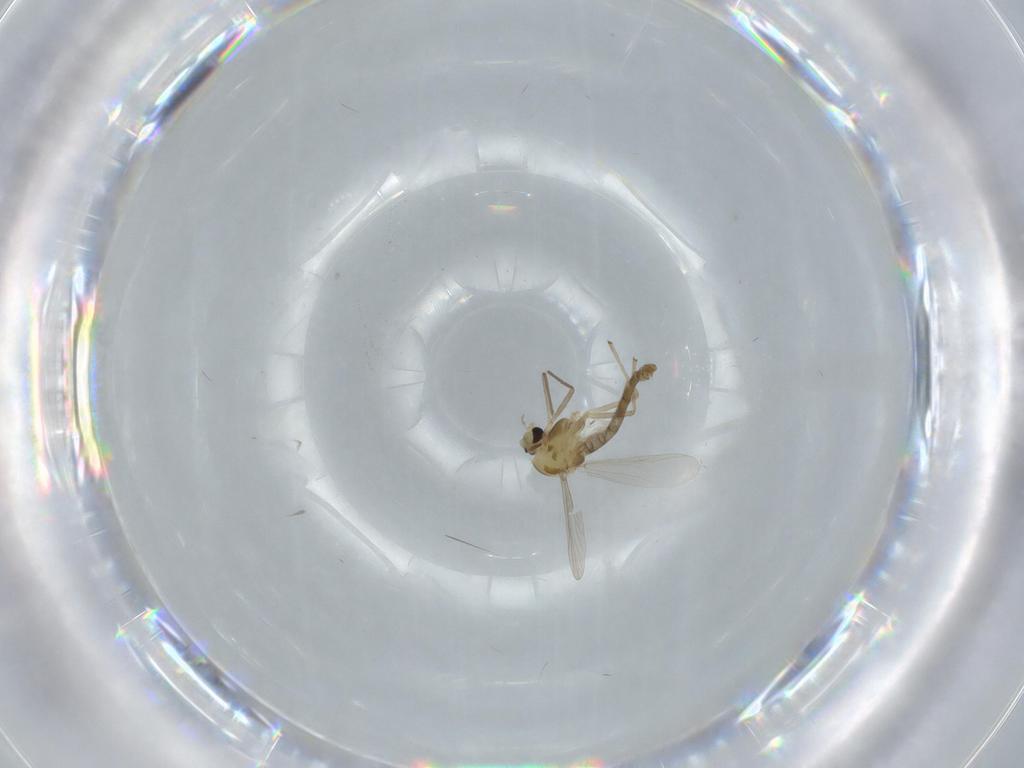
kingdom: Animalia
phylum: Arthropoda
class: Insecta
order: Diptera
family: Chironomidae
